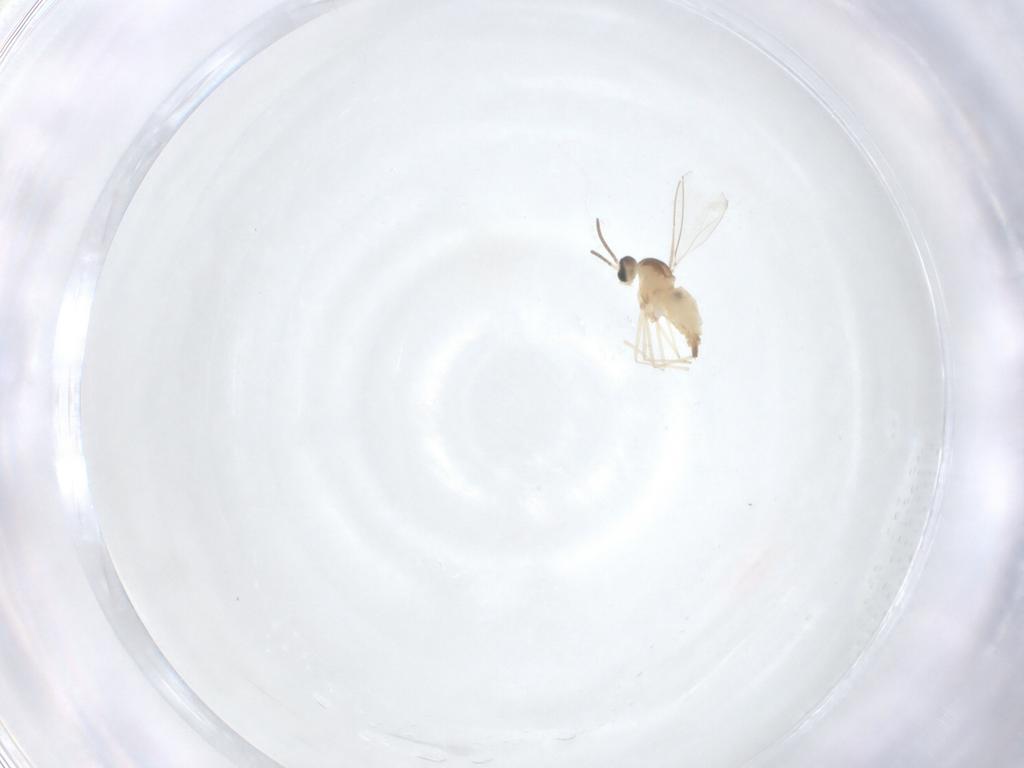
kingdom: Animalia
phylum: Arthropoda
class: Insecta
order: Diptera
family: Cecidomyiidae
